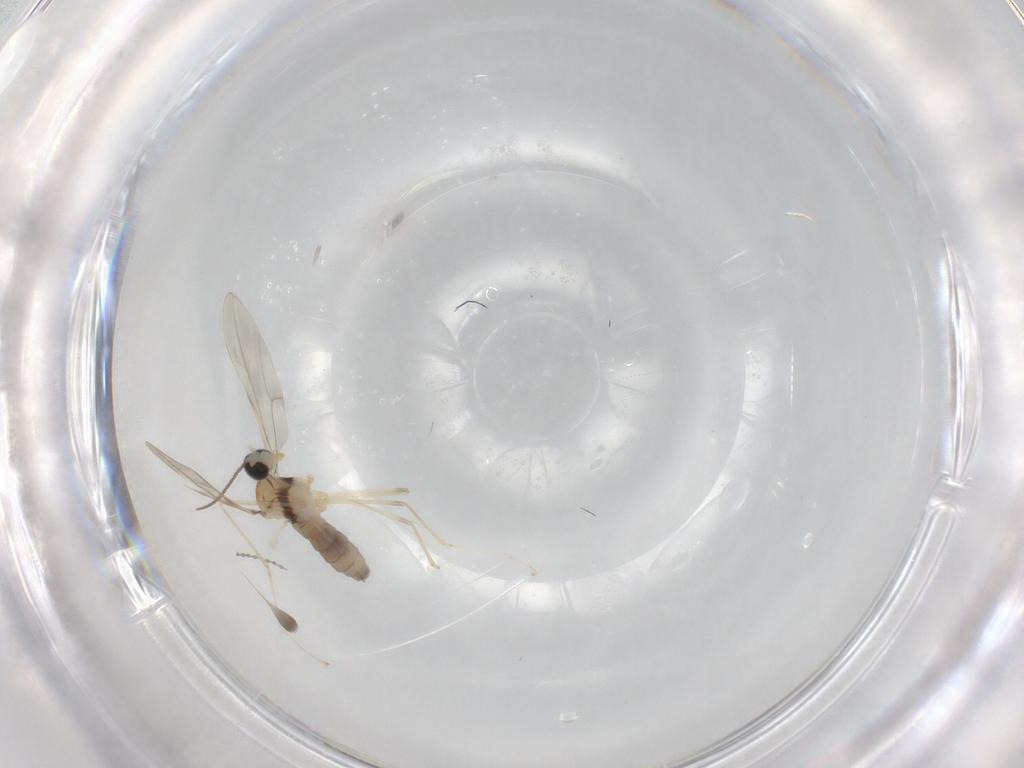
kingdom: Animalia
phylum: Arthropoda
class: Insecta
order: Diptera
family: Cecidomyiidae
